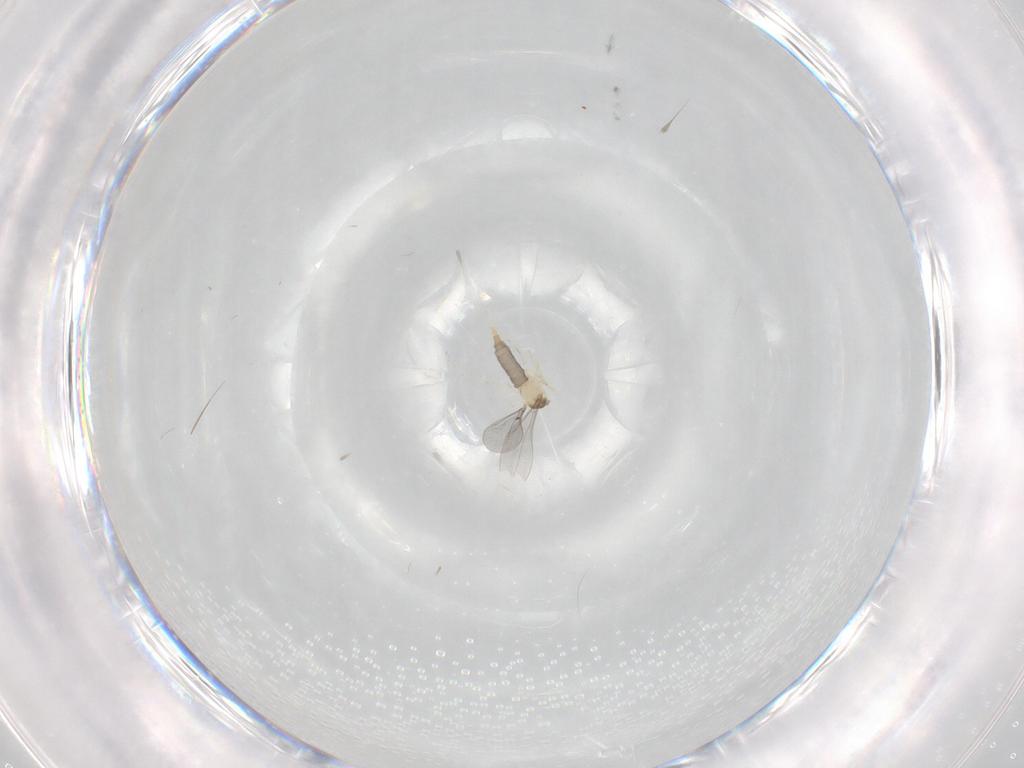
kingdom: Animalia
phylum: Arthropoda
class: Insecta
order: Diptera
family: Cecidomyiidae
